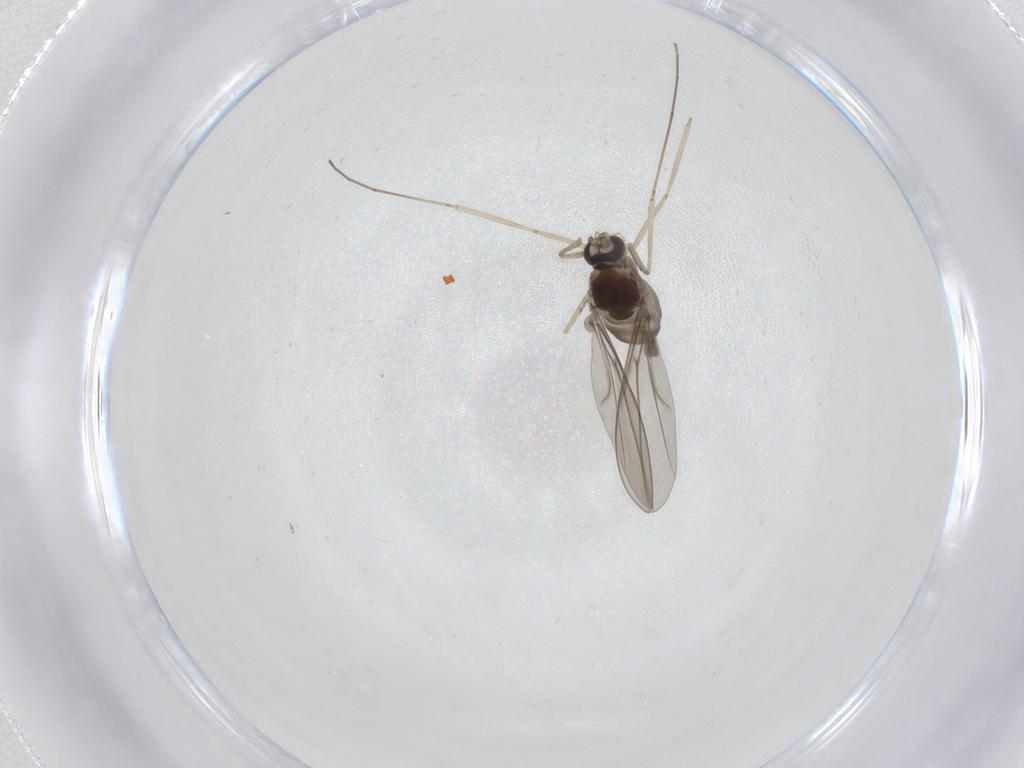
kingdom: Animalia
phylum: Arthropoda
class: Insecta
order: Diptera
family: Cecidomyiidae
